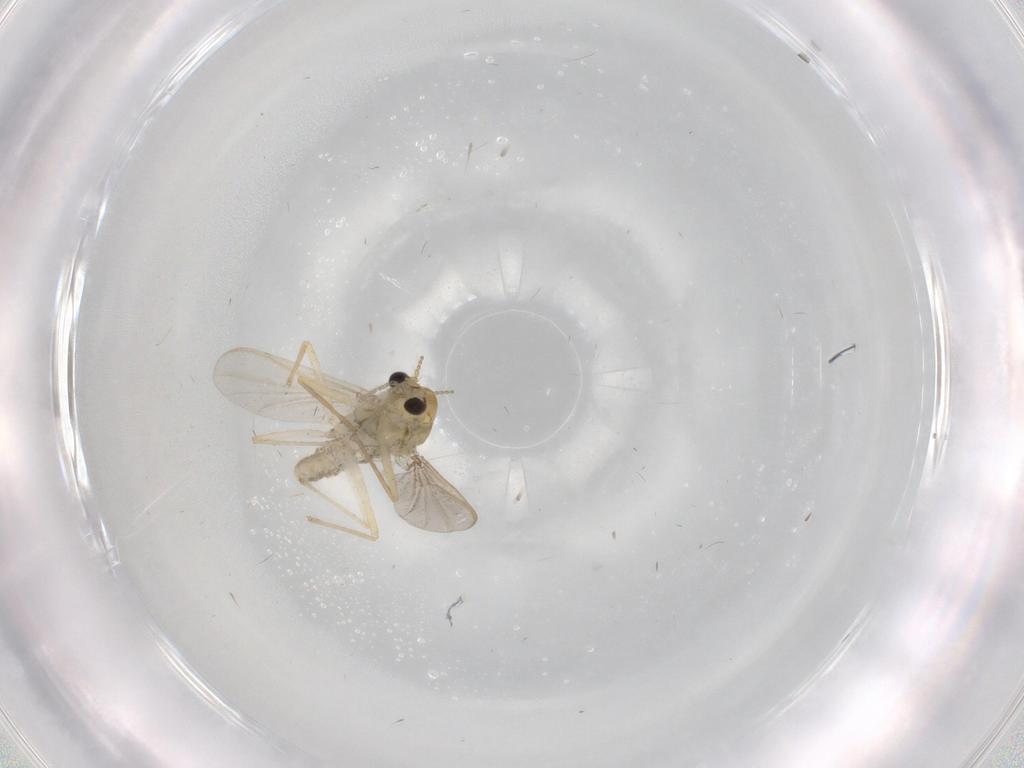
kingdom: Animalia
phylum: Arthropoda
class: Insecta
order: Diptera
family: Chironomidae
